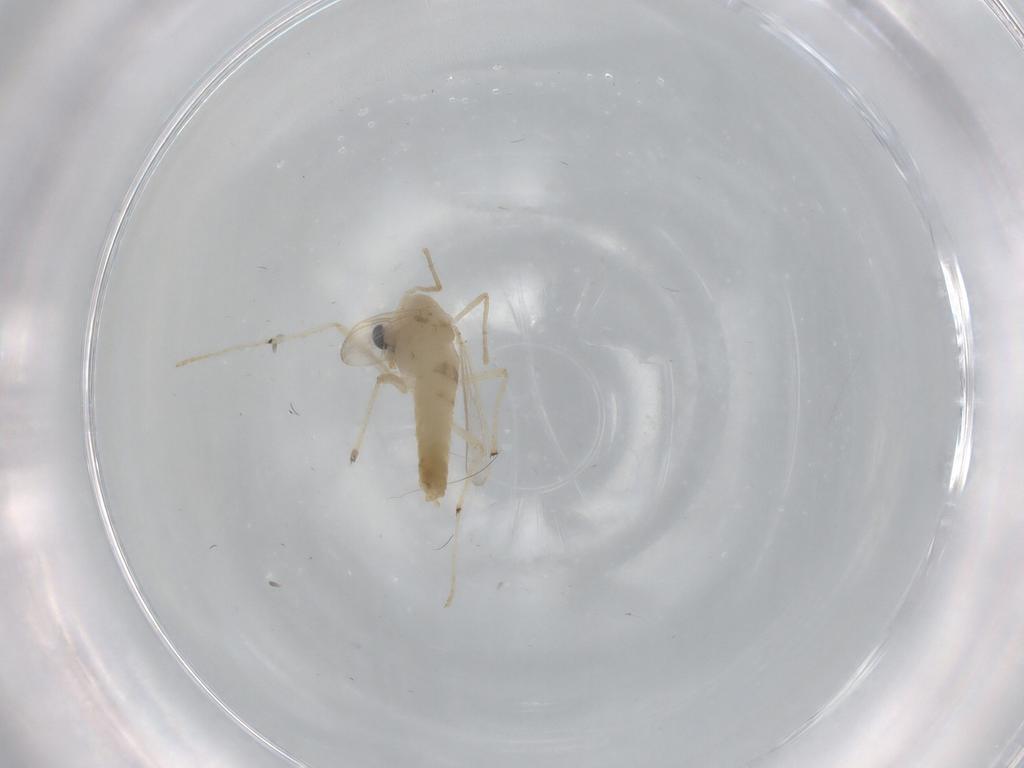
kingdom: Animalia
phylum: Arthropoda
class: Insecta
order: Diptera
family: Chironomidae
